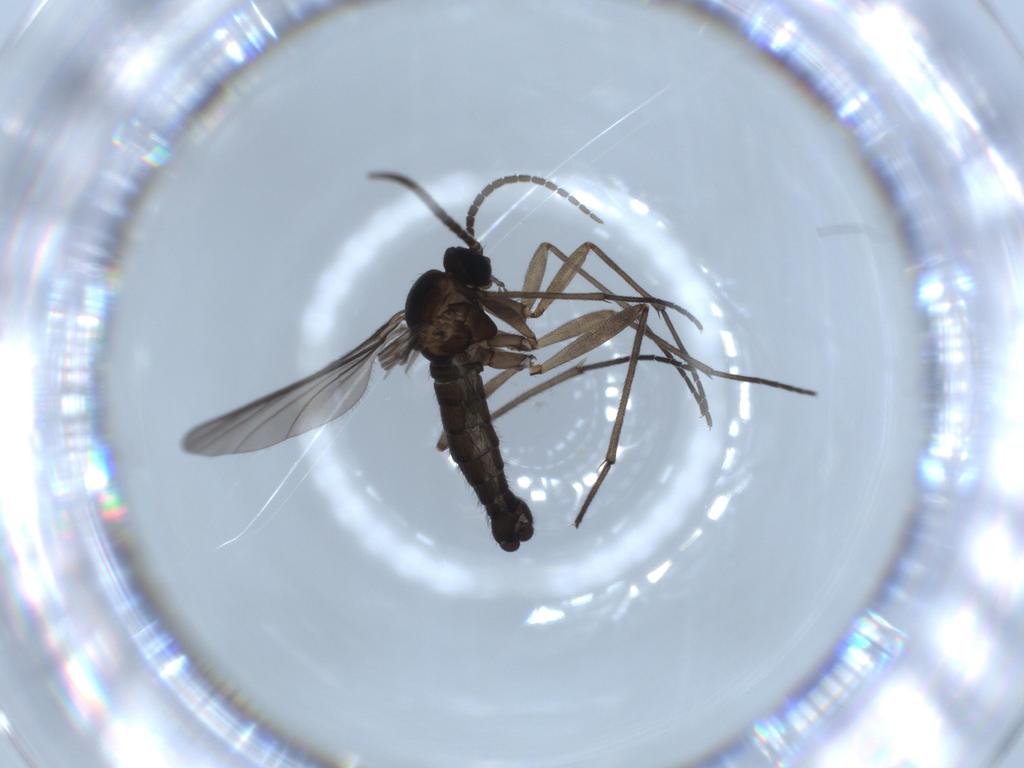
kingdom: Animalia
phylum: Arthropoda
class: Insecta
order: Diptera
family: Sciaridae
